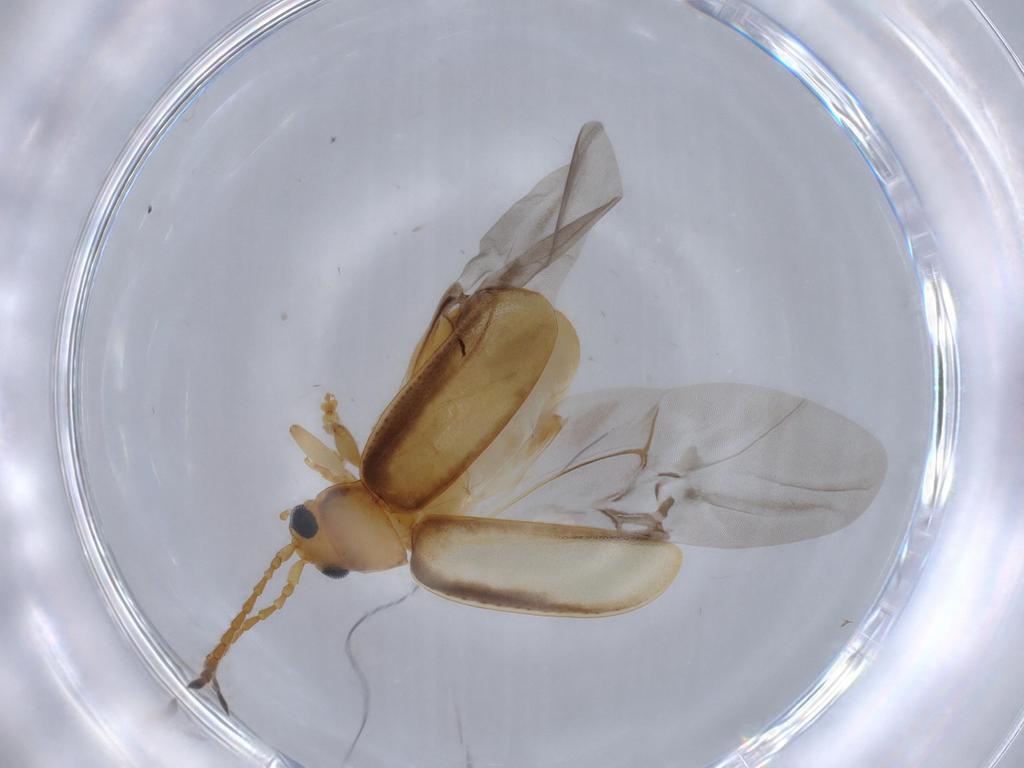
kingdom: Animalia
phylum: Arthropoda
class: Insecta
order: Coleoptera
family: Chrysomelidae
